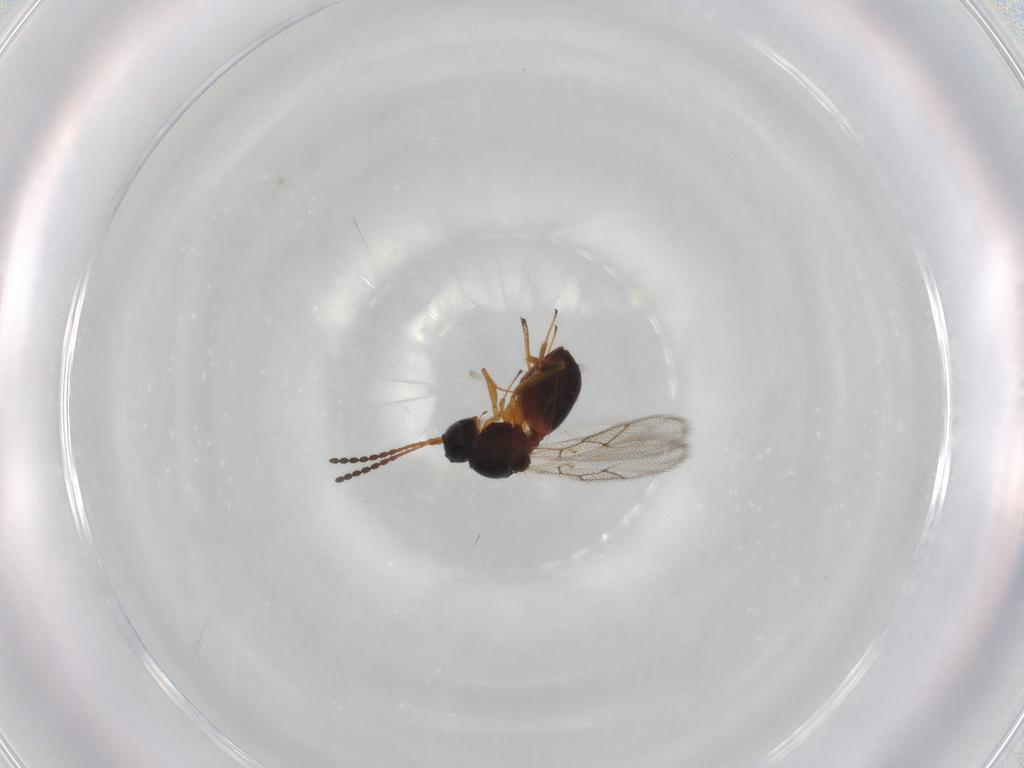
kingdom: Animalia
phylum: Arthropoda
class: Insecta
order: Hymenoptera
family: Figitidae
